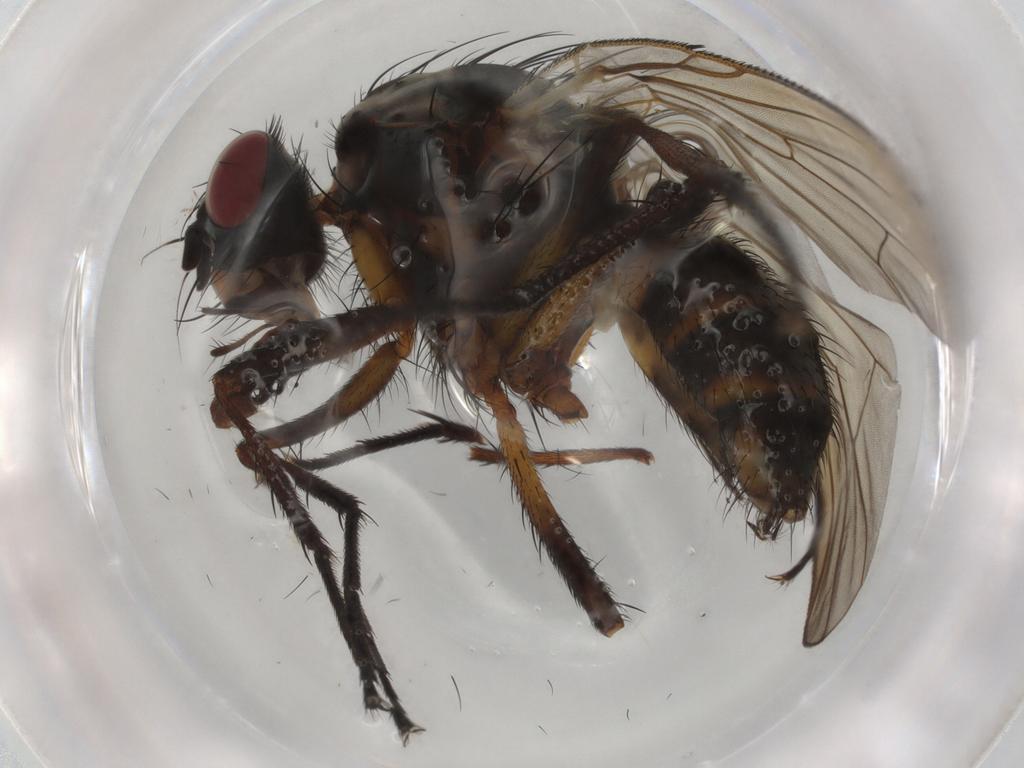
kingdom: Animalia
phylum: Arthropoda
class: Insecta
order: Diptera
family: Anthomyiidae
